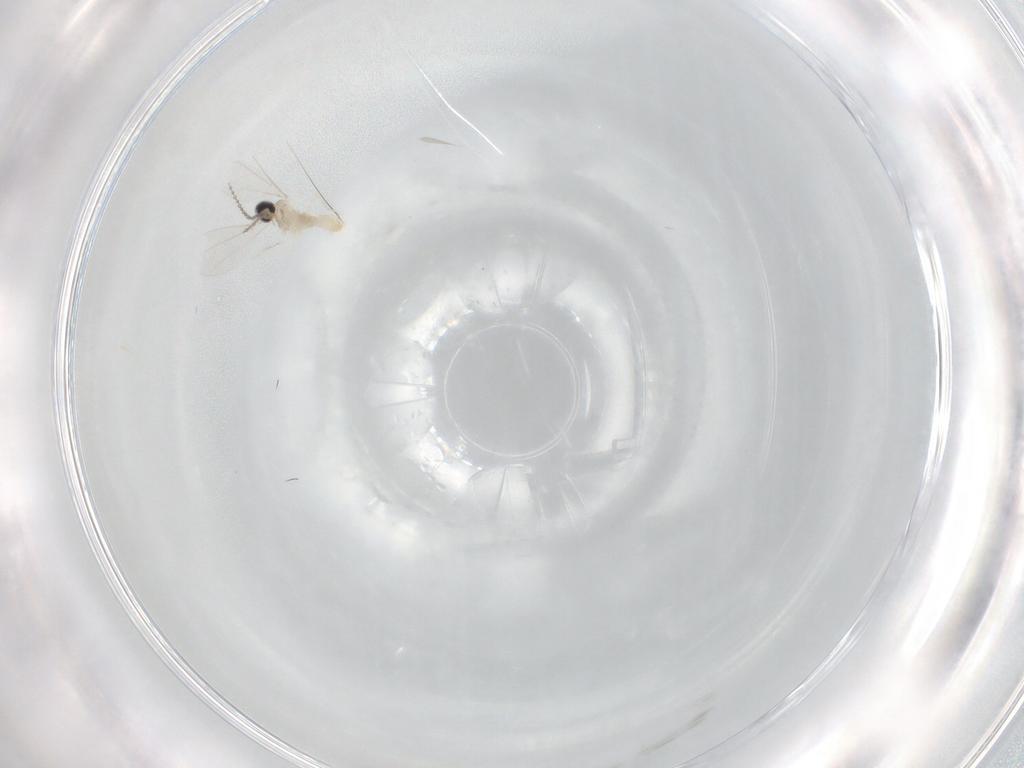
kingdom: Animalia
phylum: Arthropoda
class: Insecta
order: Diptera
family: Cecidomyiidae
